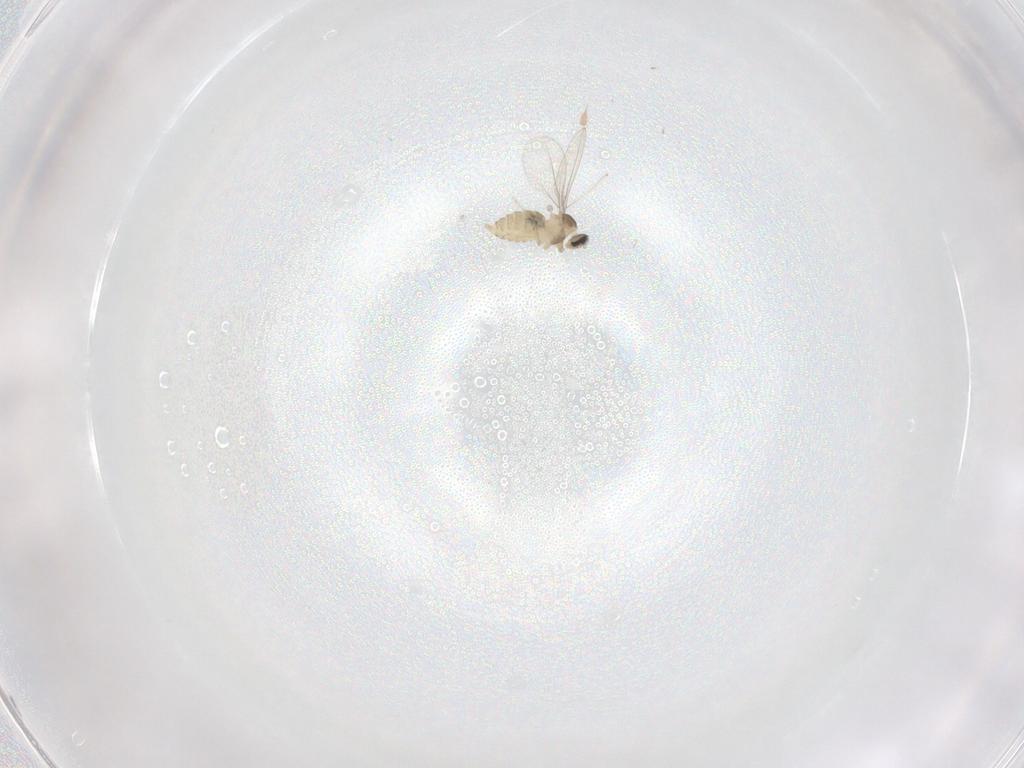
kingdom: Animalia
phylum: Arthropoda
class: Insecta
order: Diptera
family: Cecidomyiidae
